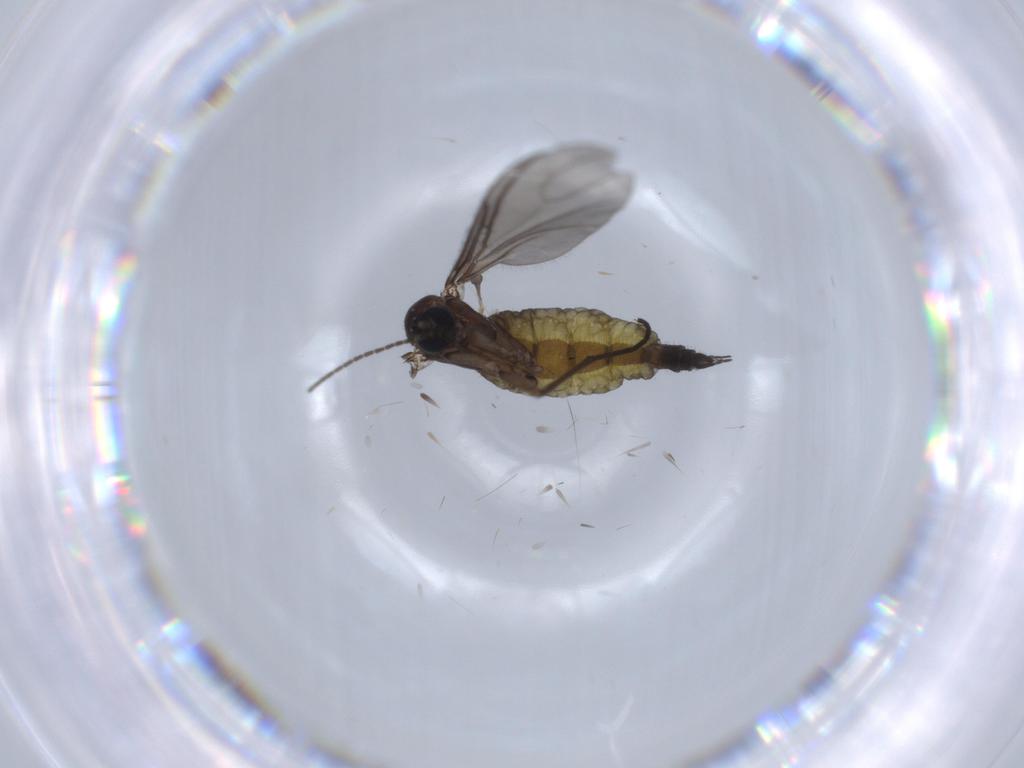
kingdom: Animalia
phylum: Arthropoda
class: Insecta
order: Diptera
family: Sciaridae
